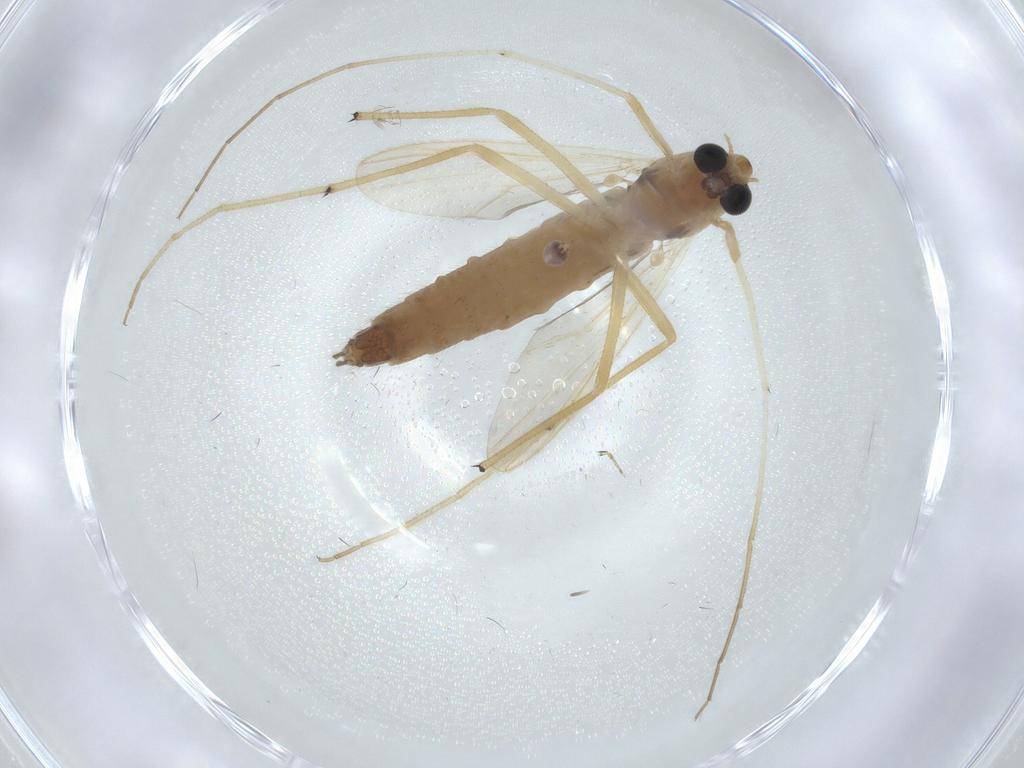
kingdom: Animalia
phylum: Arthropoda
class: Insecta
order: Diptera
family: Chironomidae
